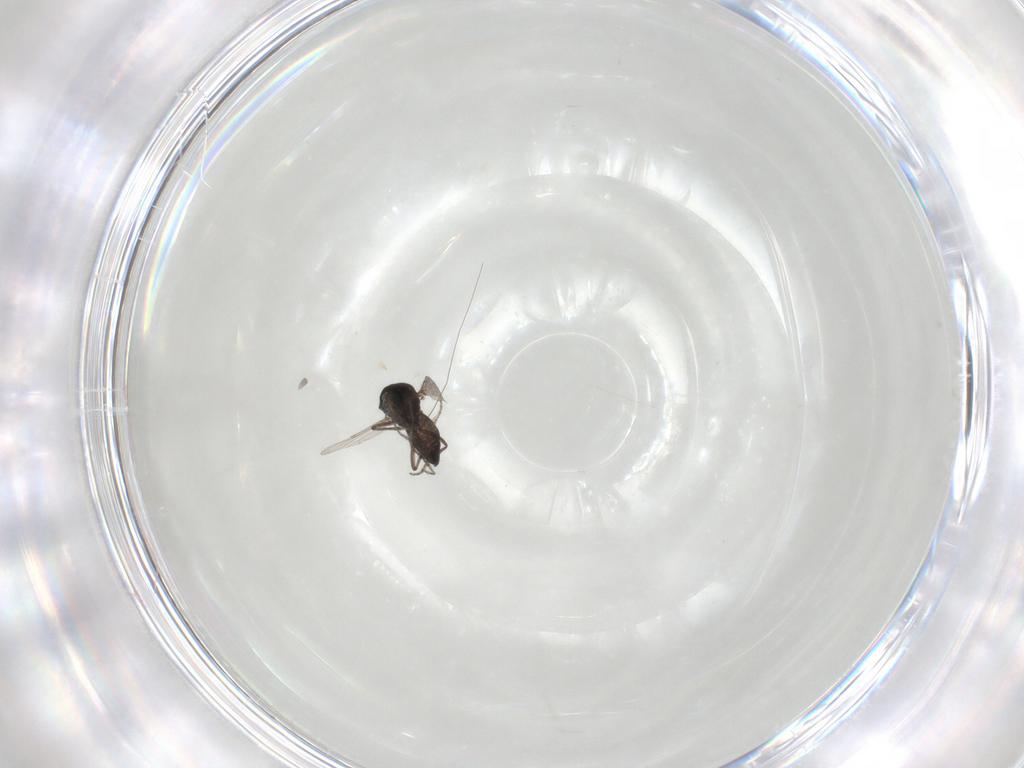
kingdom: Animalia
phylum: Arthropoda
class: Insecta
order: Diptera
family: Ceratopogonidae
